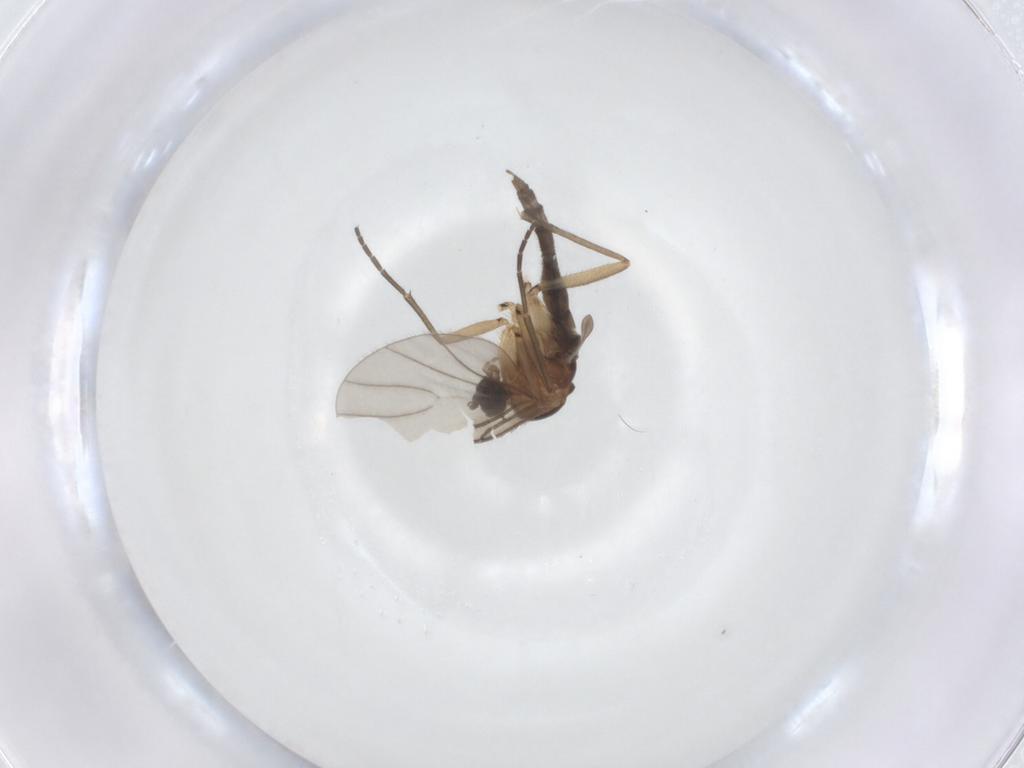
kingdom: Animalia
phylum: Arthropoda
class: Insecta
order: Diptera
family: Sciaridae
